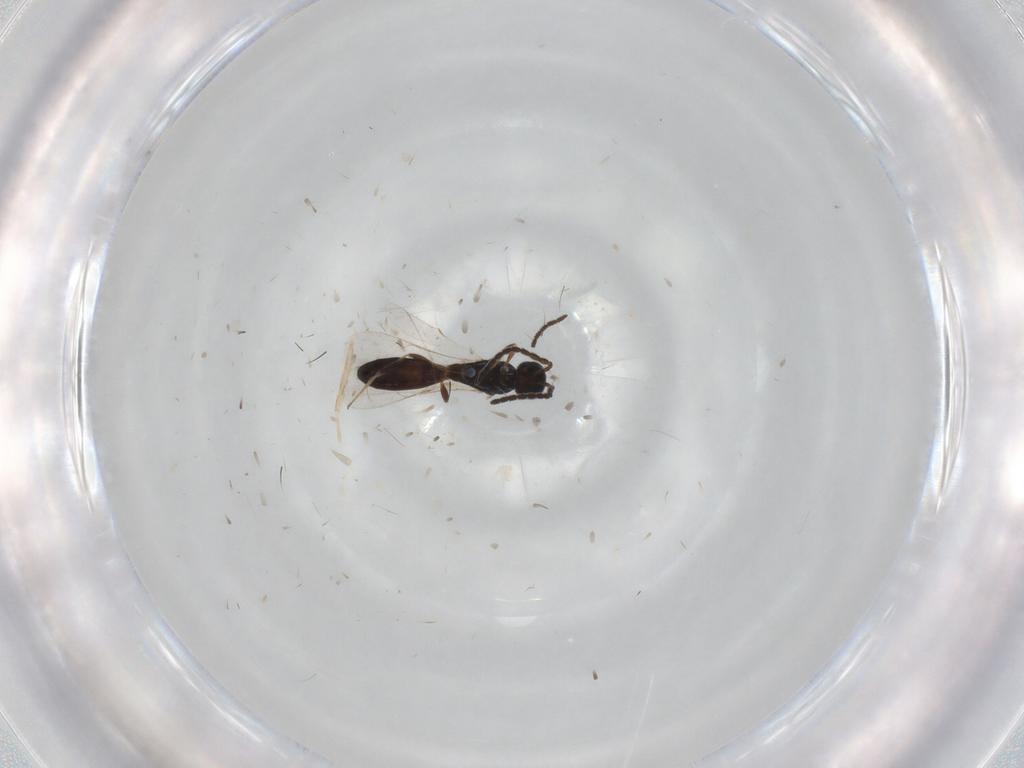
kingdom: Animalia
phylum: Arthropoda
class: Insecta
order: Hymenoptera
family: Scelionidae
